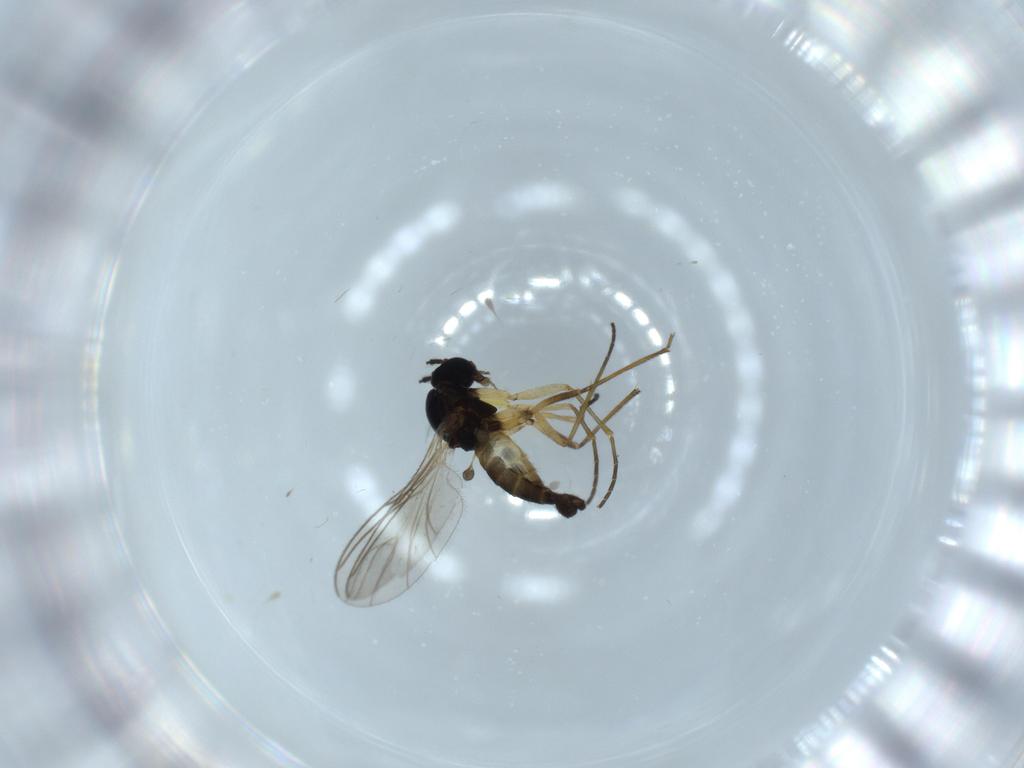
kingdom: Animalia
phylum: Arthropoda
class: Insecta
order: Diptera
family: Sciaridae
